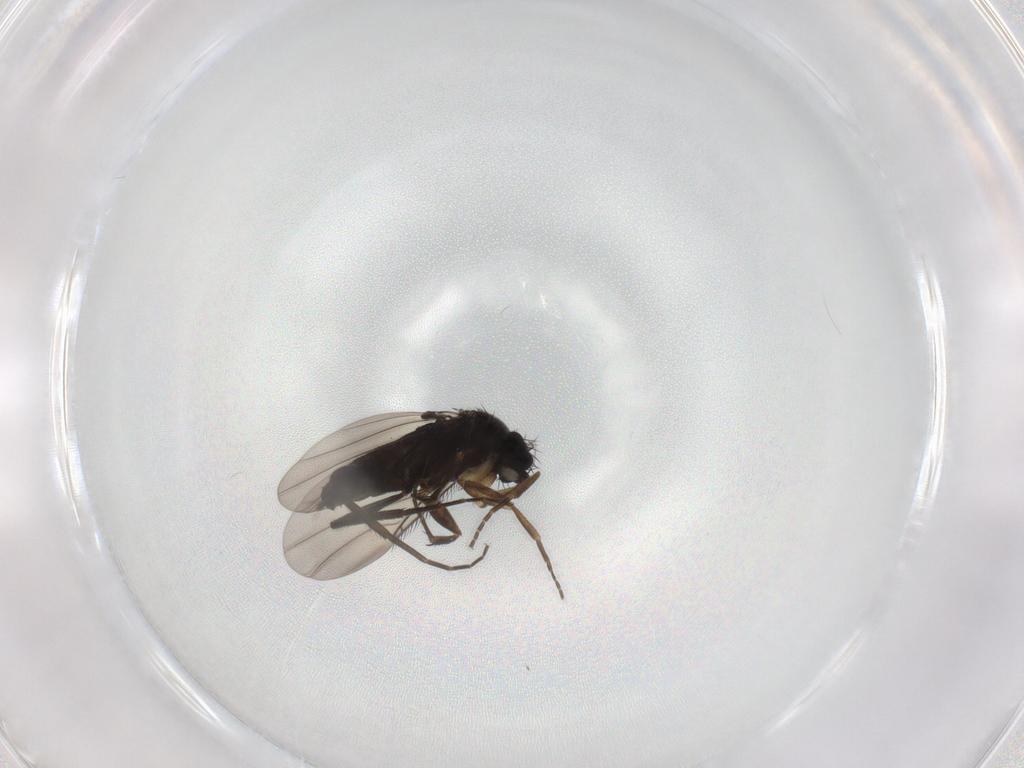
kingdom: Animalia
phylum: Arthropoda
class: Insecta
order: Diptera
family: Phoridae
